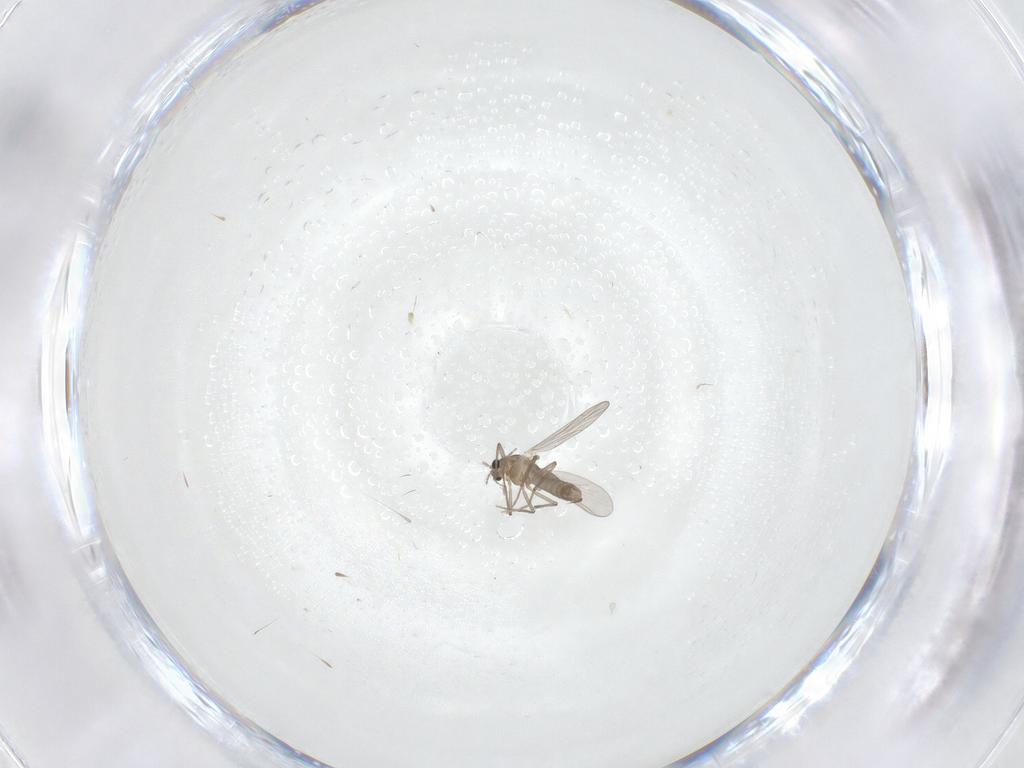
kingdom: Animalia
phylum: Arthropoda
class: Insecta
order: Diptera
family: Chironomidae
